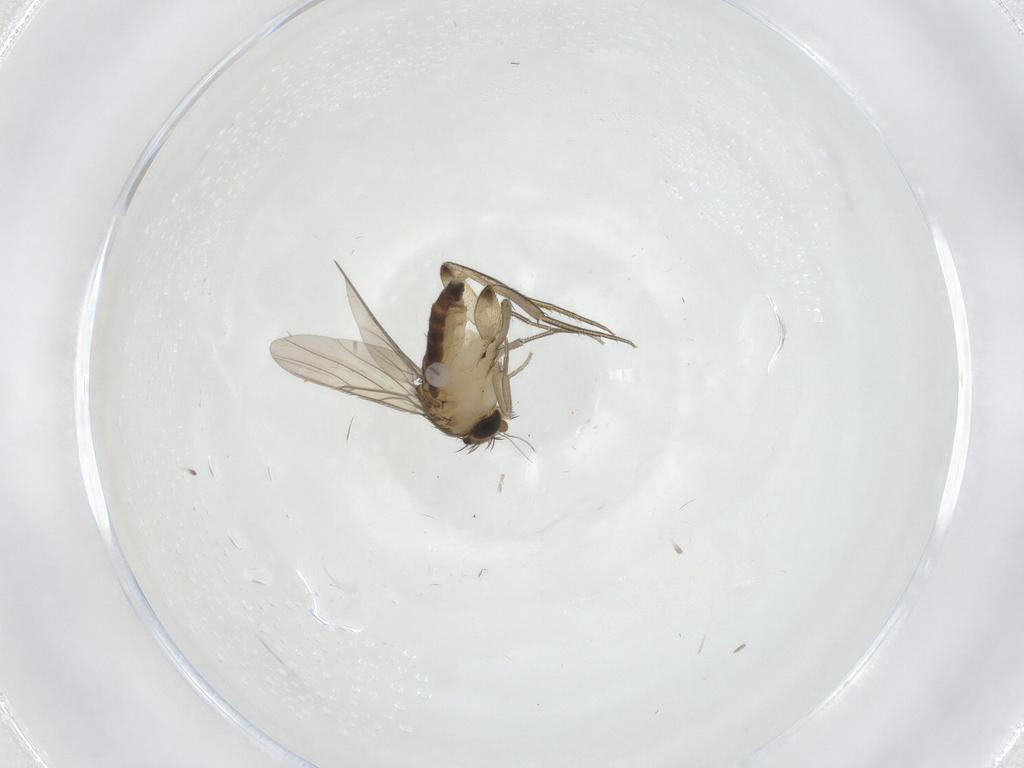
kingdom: Animalia
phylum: Arthropoda
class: Insecta
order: Diptera
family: Phoridae
